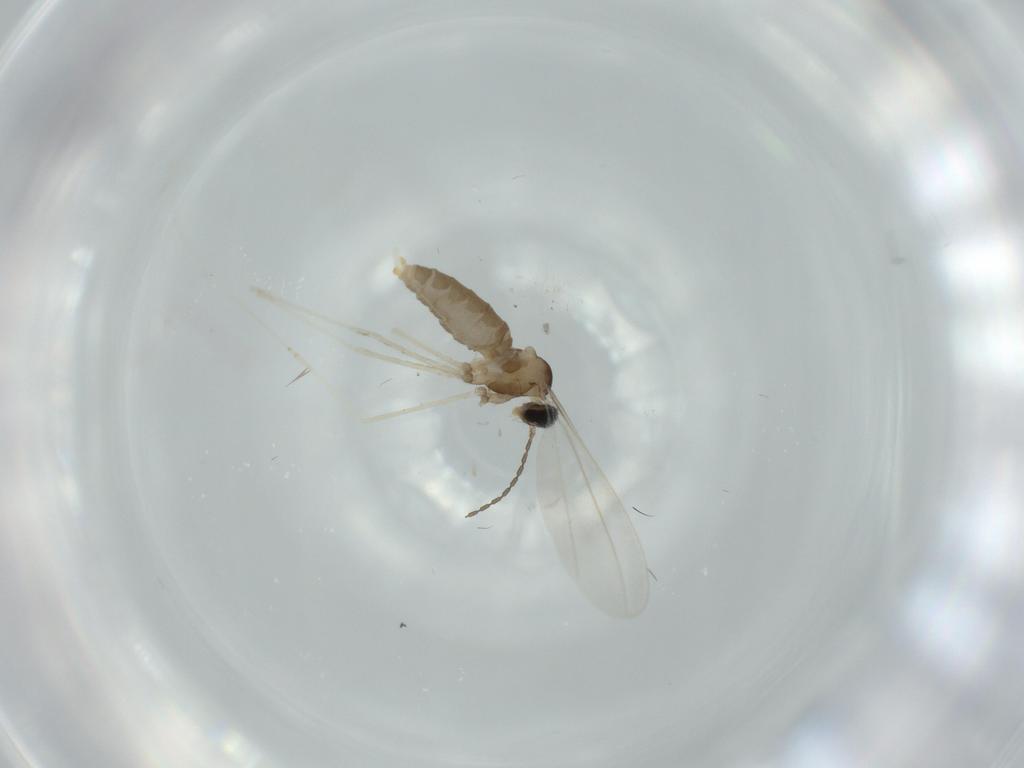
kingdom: Animalia
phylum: Arthropoda
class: Insecta
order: Diptera
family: Cecidomyiidae
